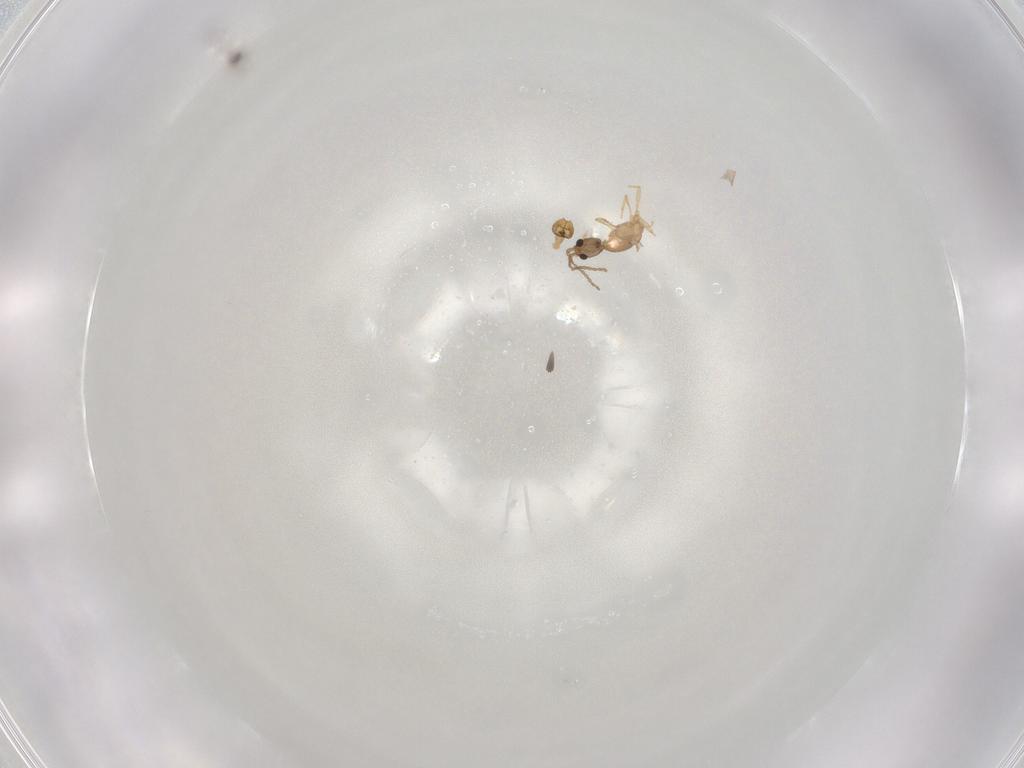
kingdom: Animalia
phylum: Arthropoda
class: Insecta
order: Hymenoptera
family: Formicidae
